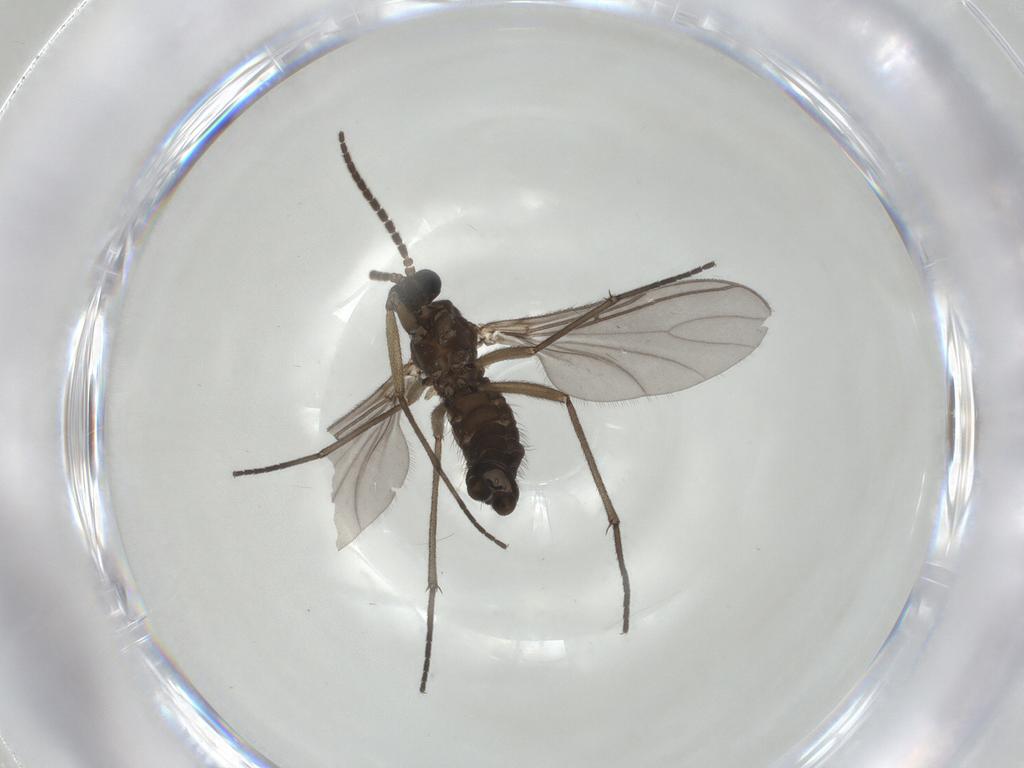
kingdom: Animalia
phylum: Arthropoda
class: Insecta
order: Diptera
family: Sciaridae
